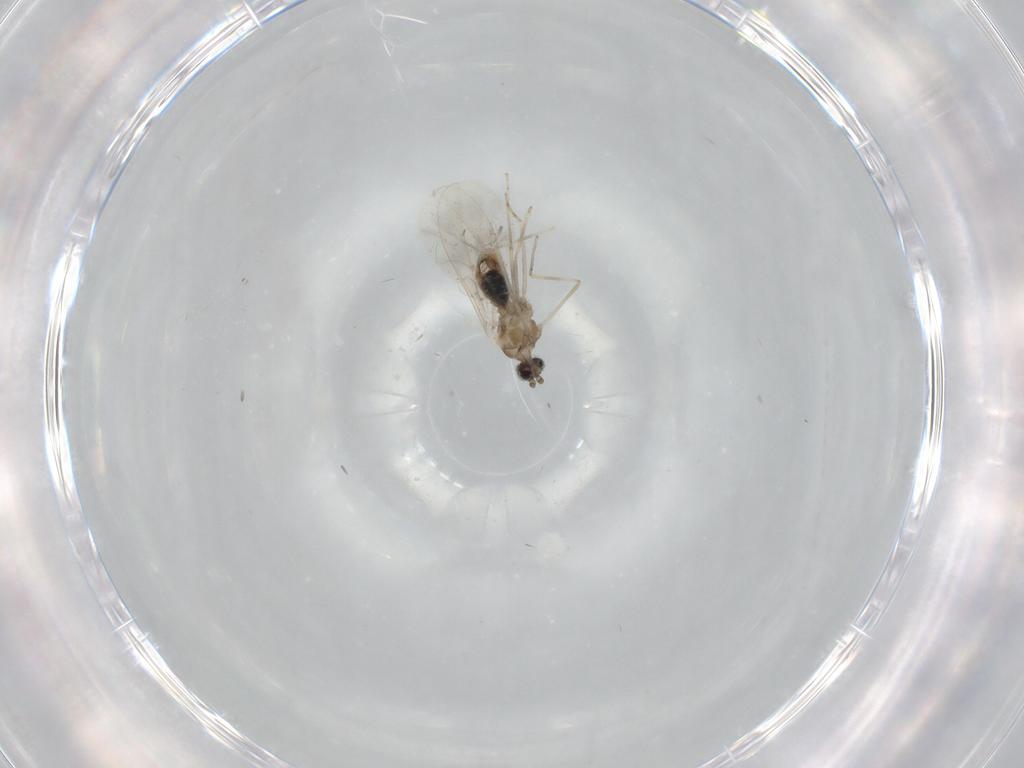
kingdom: Animalia
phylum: Arthropoda
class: Insecta
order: Diptera
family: Cecidomyiidae
